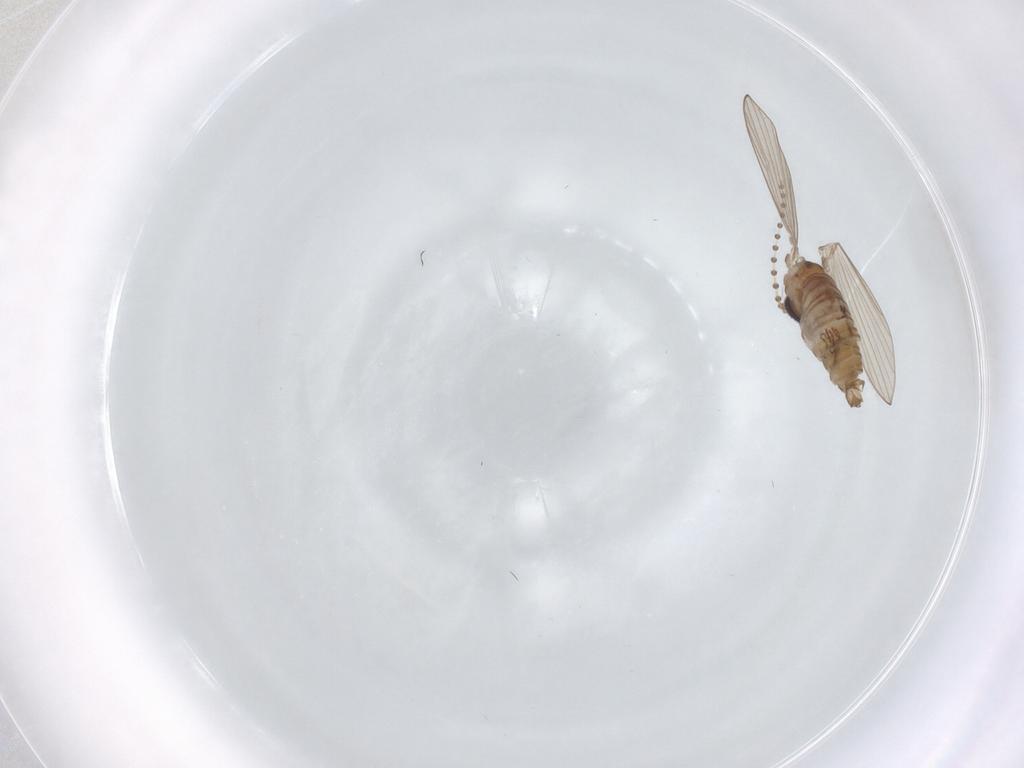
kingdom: Animalia
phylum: Arthropoda
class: Insecta
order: Diptera
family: Psychodidae
